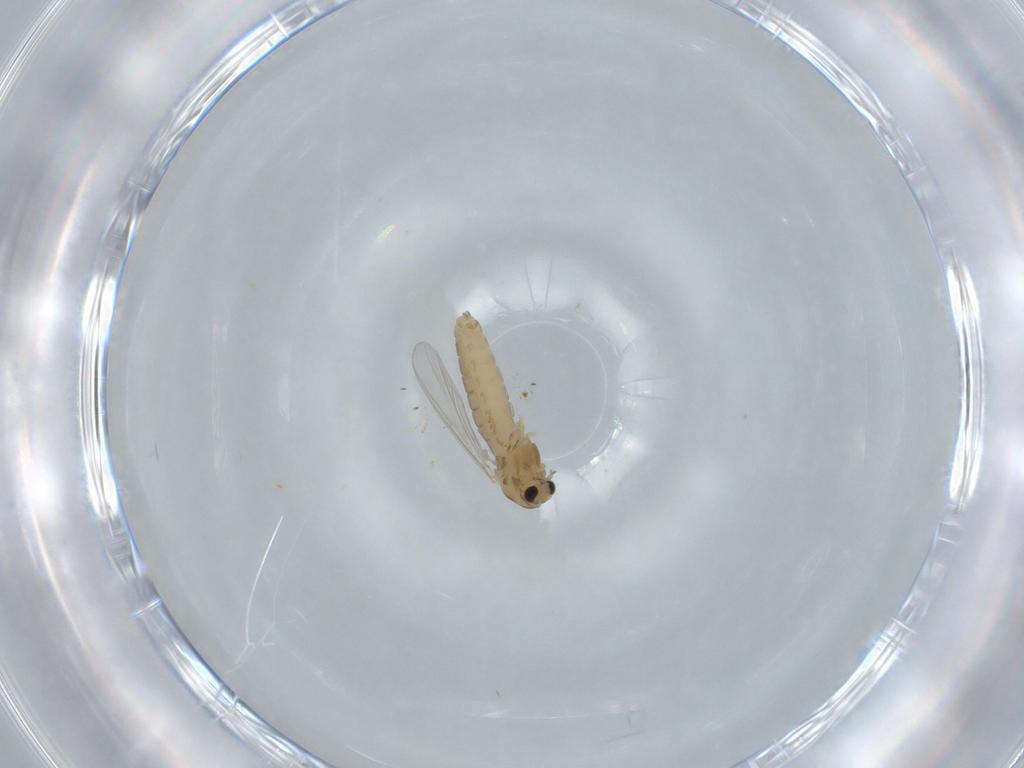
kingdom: Animalia
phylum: Arthropoda
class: Insecta
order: Diptera
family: Chironomidae
